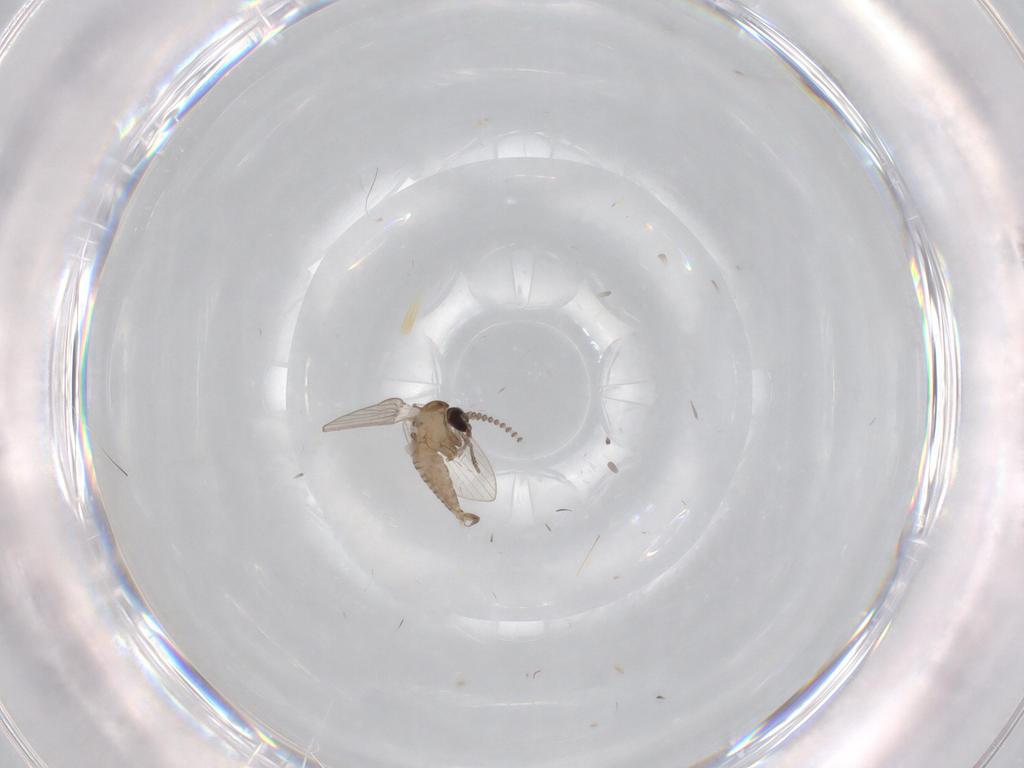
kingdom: Animalia
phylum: Arthropoda
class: Insecta
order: Diptera
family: Psychodidae
